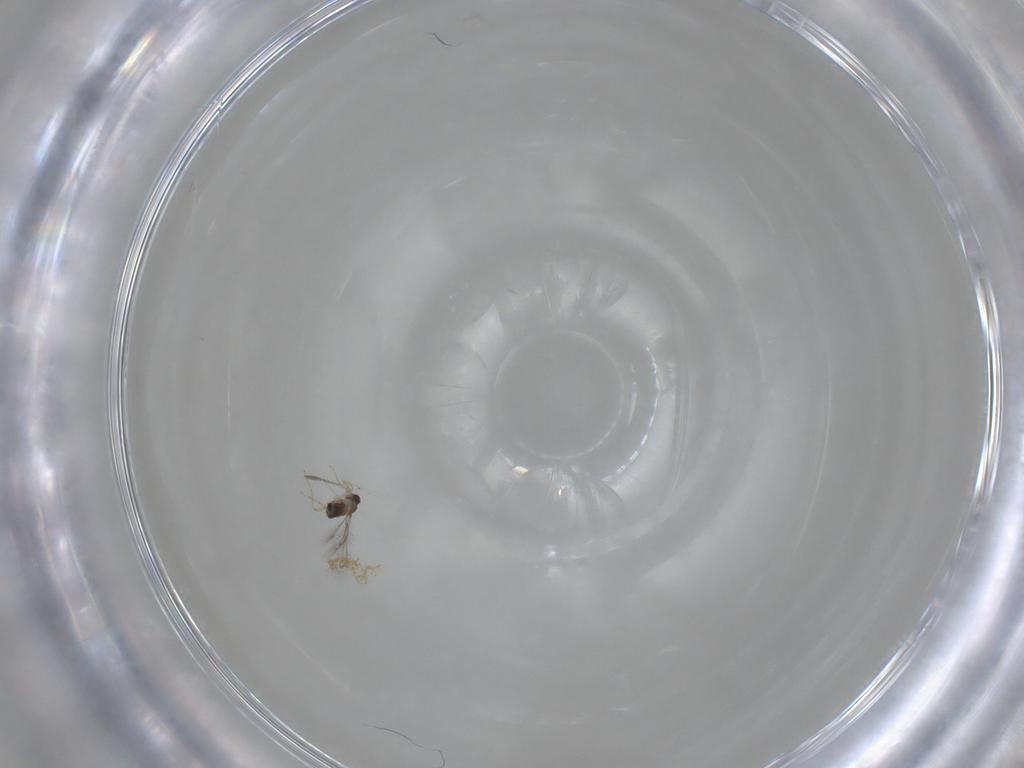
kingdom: Animalia
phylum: Arthropoda
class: Insecta
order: Hymenoptera
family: Mymaridae
